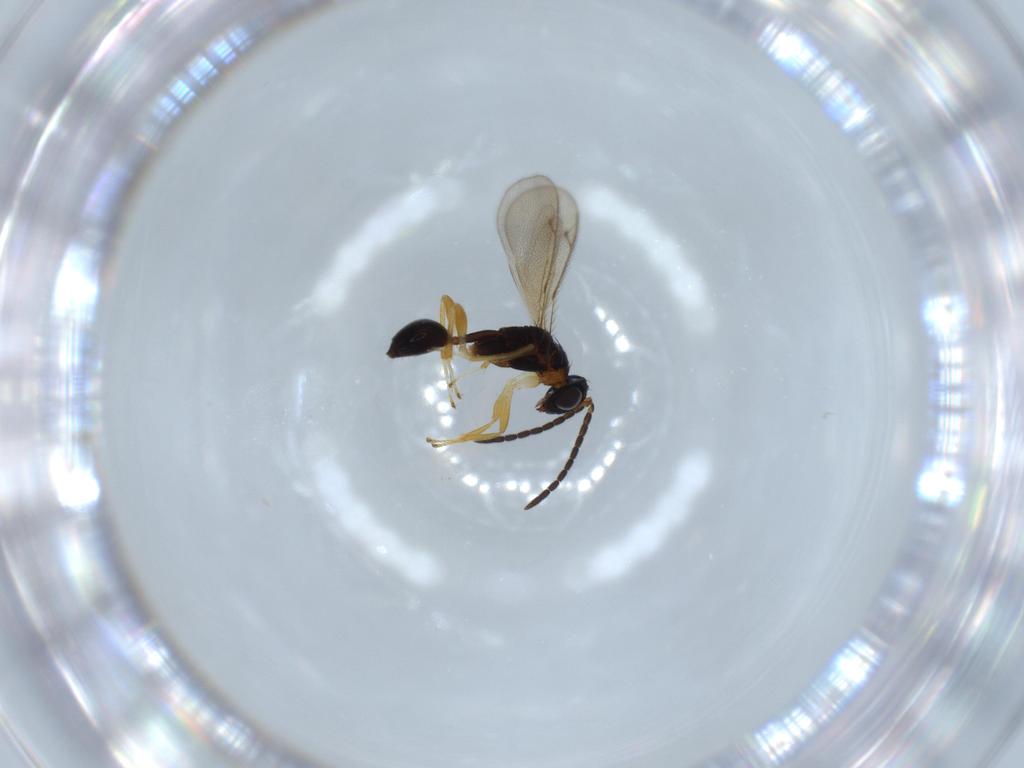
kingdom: Animalia
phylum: Arthropoda
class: Insecta
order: Hymenoptera
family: Diparidae
